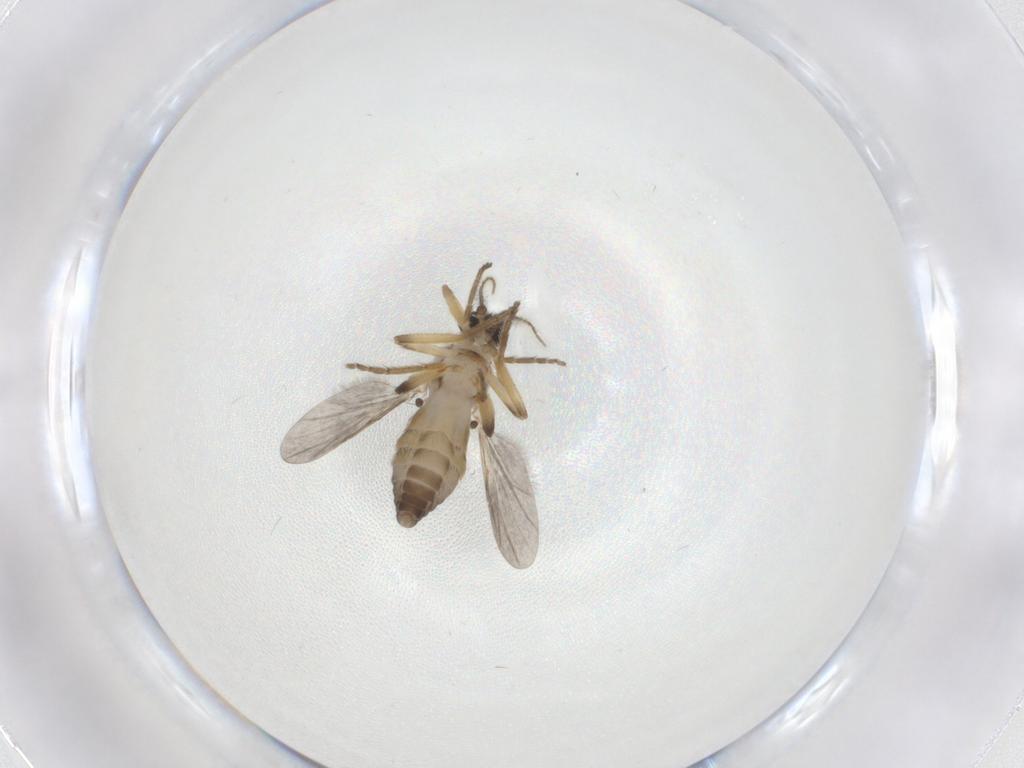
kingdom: Animalia
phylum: Arthropoda
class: Insecta
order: Diptera
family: Ceratopogonidae
